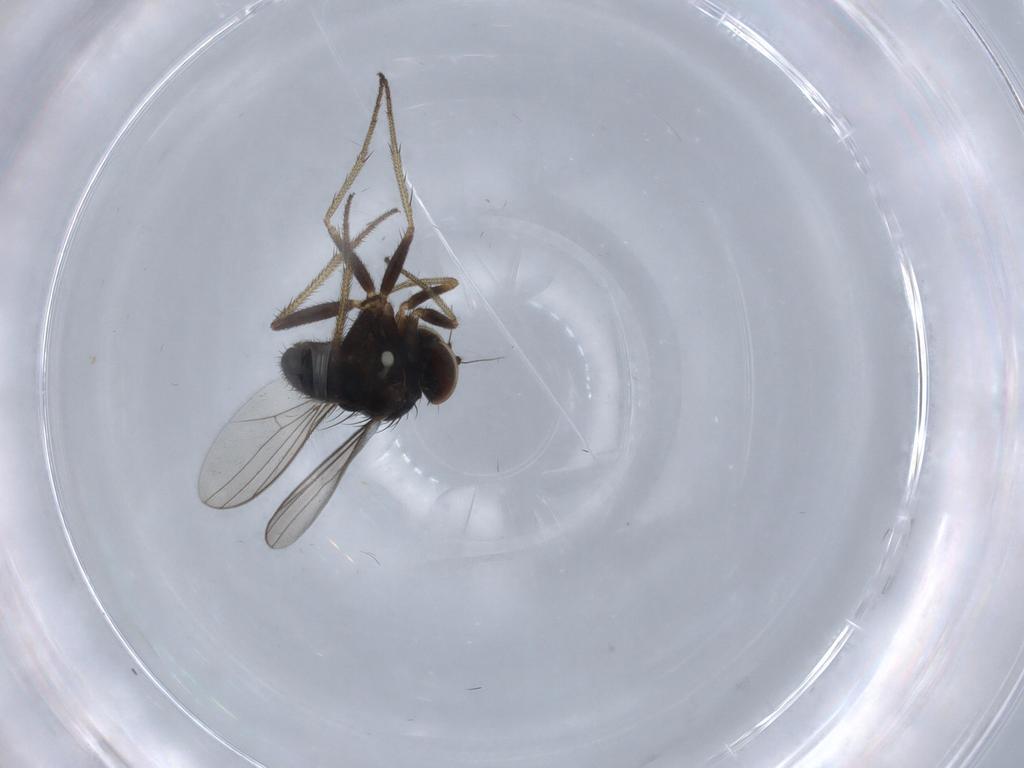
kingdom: Animalia
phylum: Arthropoda
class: Insecta
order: Diptera
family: Dolichopodidae
